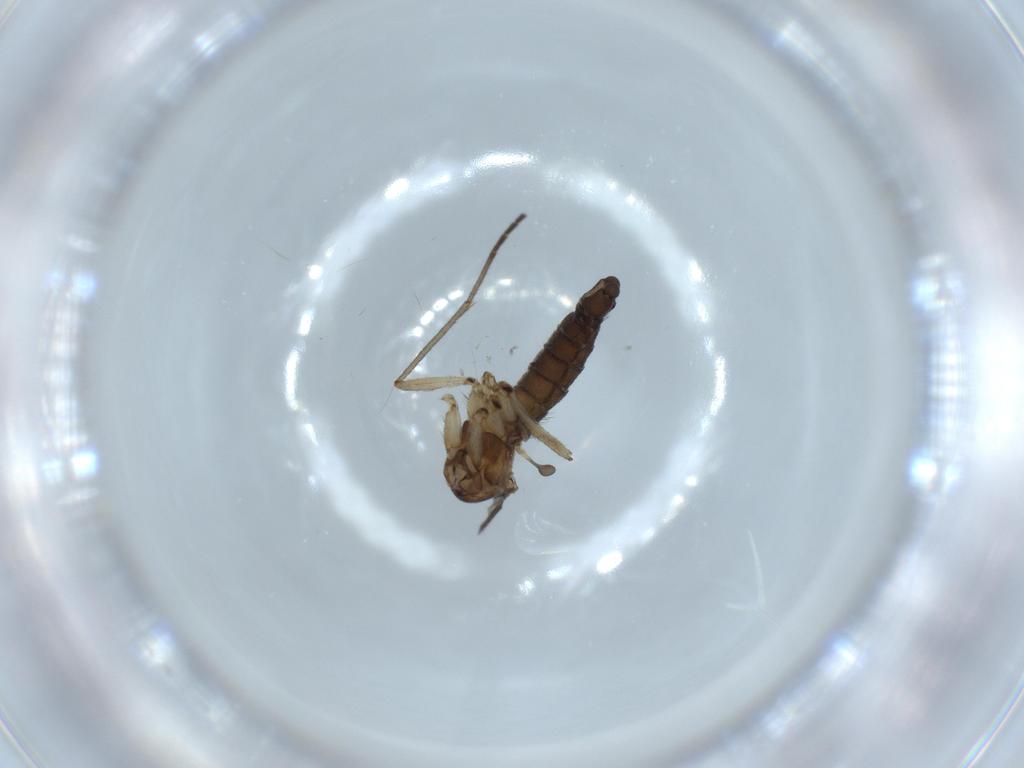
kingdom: Animalia
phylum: Arthropoda
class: Insecta
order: Diptera
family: Sciaridae
